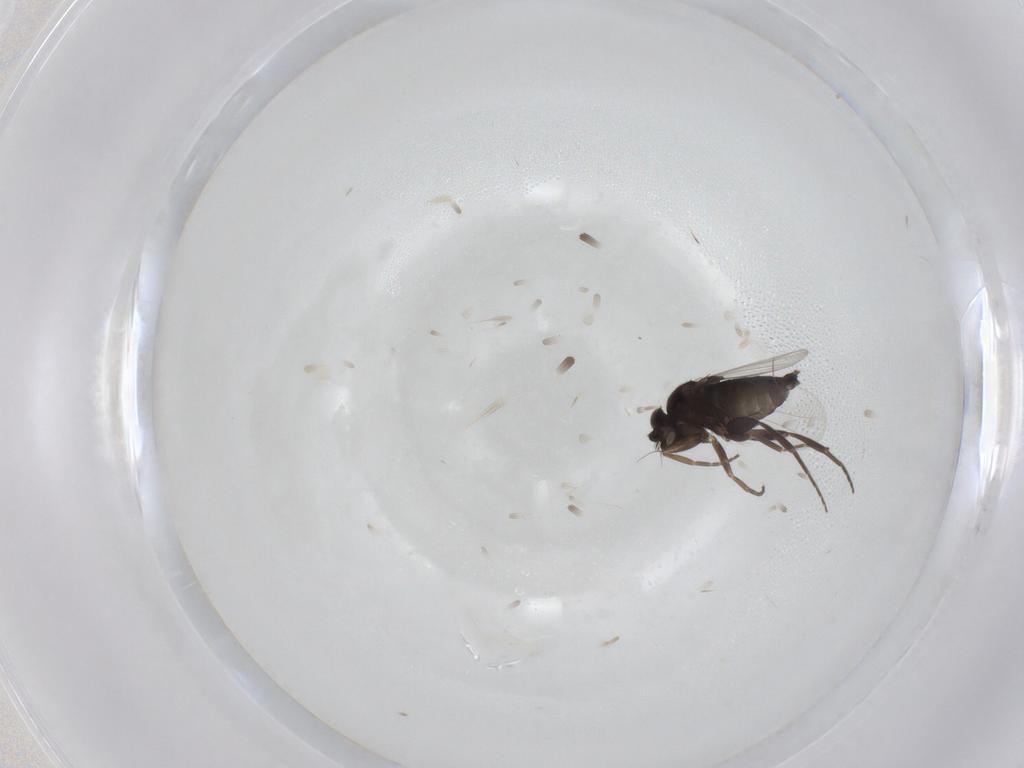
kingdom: Animalia
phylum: Arthropoda
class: Insecta
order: Diptera
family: Phoridae
